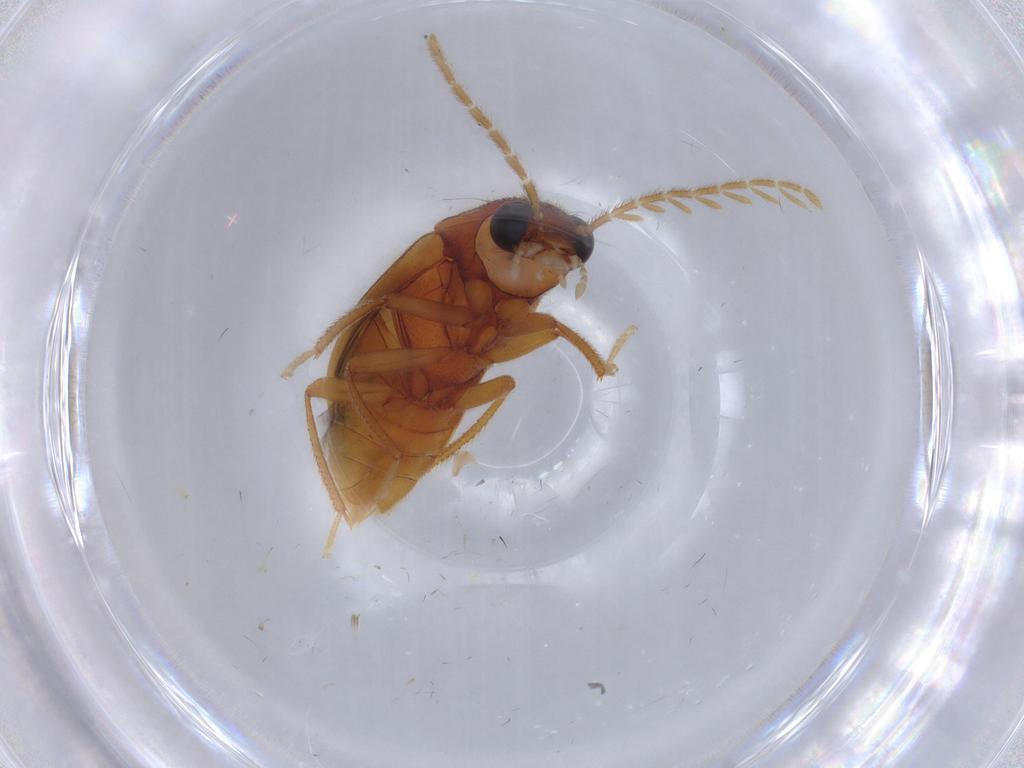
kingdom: Animalia
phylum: Arthropoda
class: Insecta
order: Coleoptera
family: Ptilodactylidae
